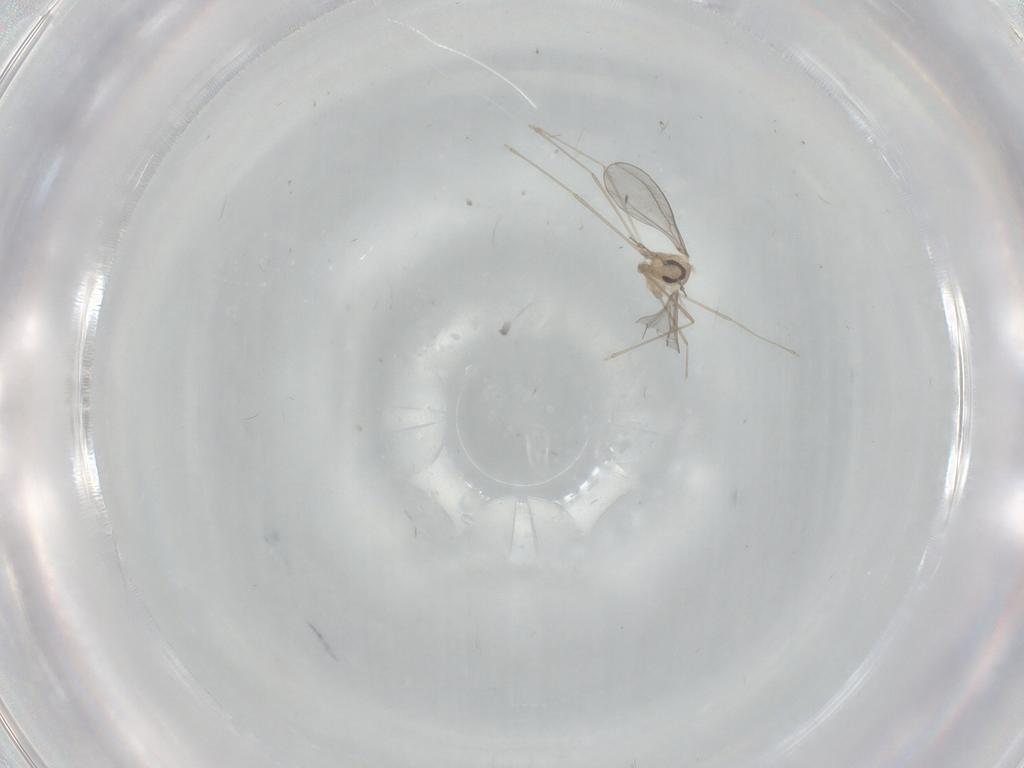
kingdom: Animalia
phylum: Arthropoda
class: Insecta
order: Diptera
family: Cecidomyiidae
